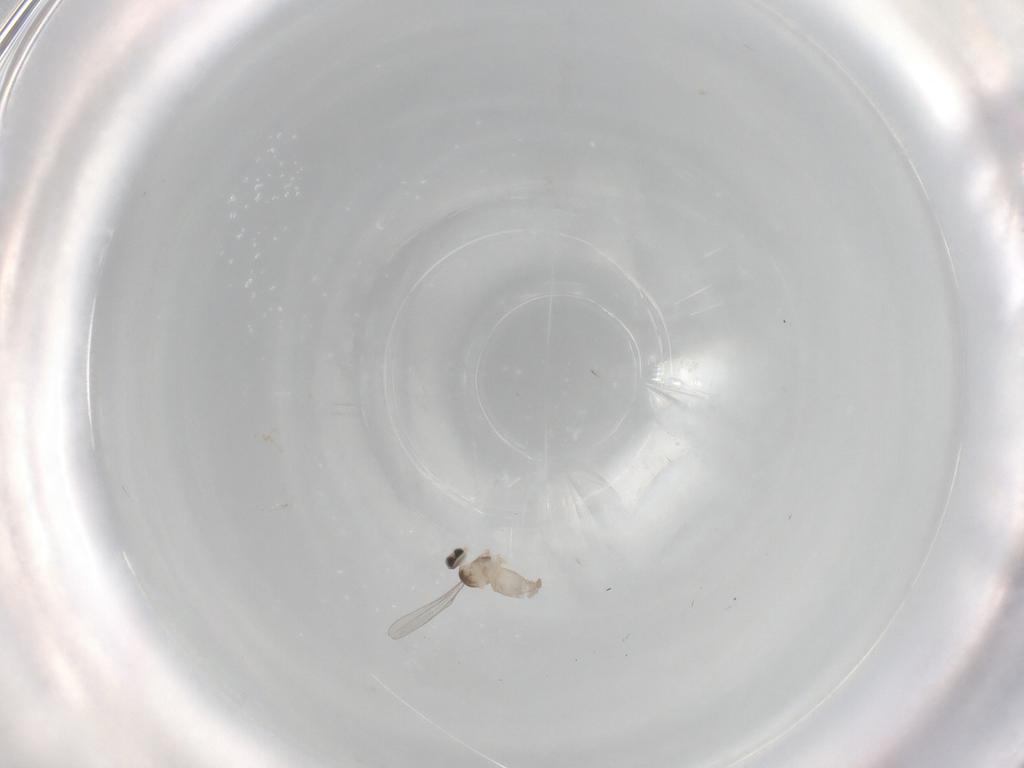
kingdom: Animalia
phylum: Arthropoda
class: Insecta
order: Diptera
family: Cecidomyiidae
